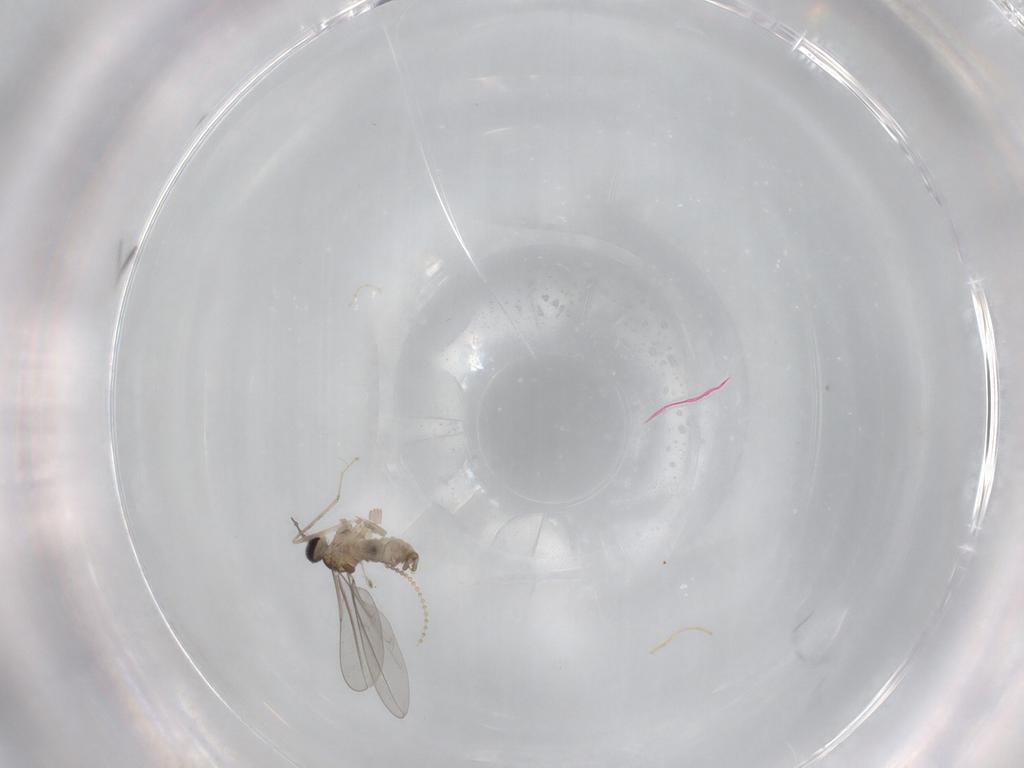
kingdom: Animalia
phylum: Arthropoda
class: Insecta
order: Diptera
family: Cecidomyiidae
